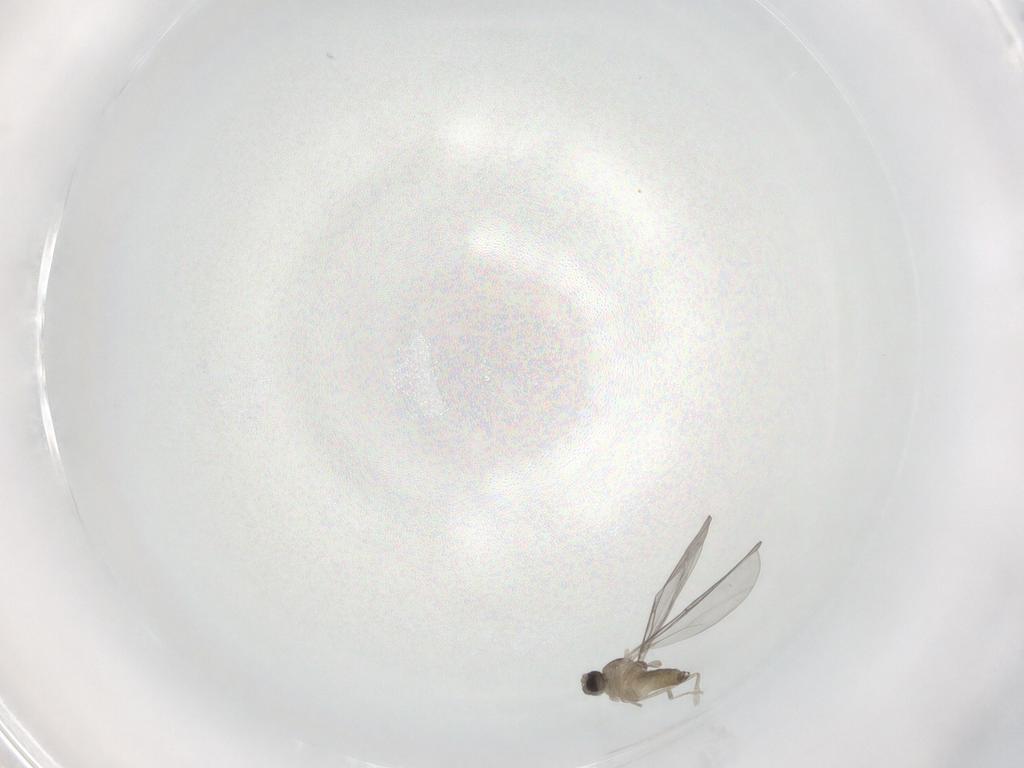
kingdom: Animalia
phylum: Arthropoda
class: Insecta
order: Diptera
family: Cecidomyiidae
